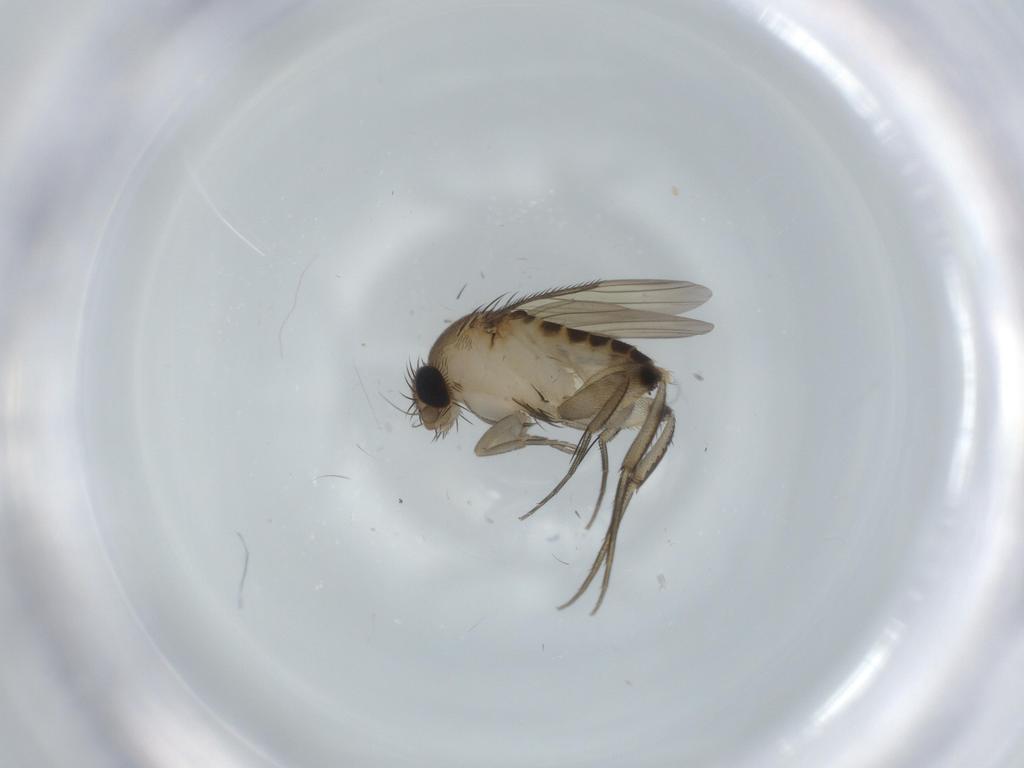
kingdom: Animalia
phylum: Arthropoda
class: Insecta
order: Diptera
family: Phoridae
